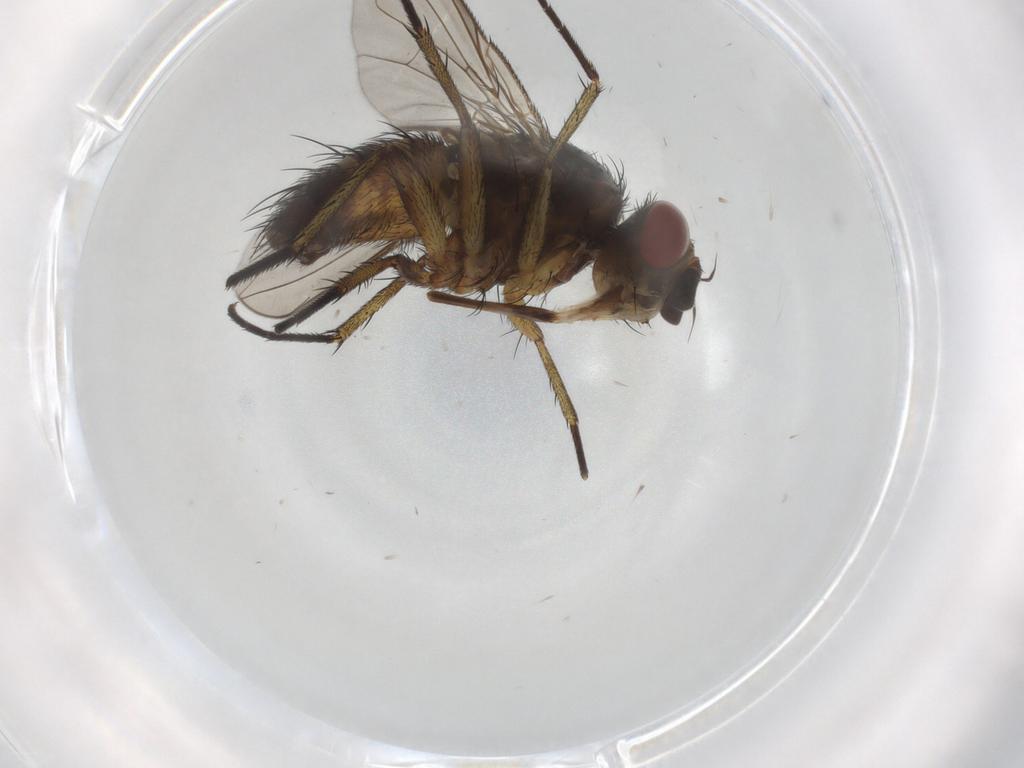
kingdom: Animalia
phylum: Arthropoda
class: Insecta
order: Diptera
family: Tachinidae
